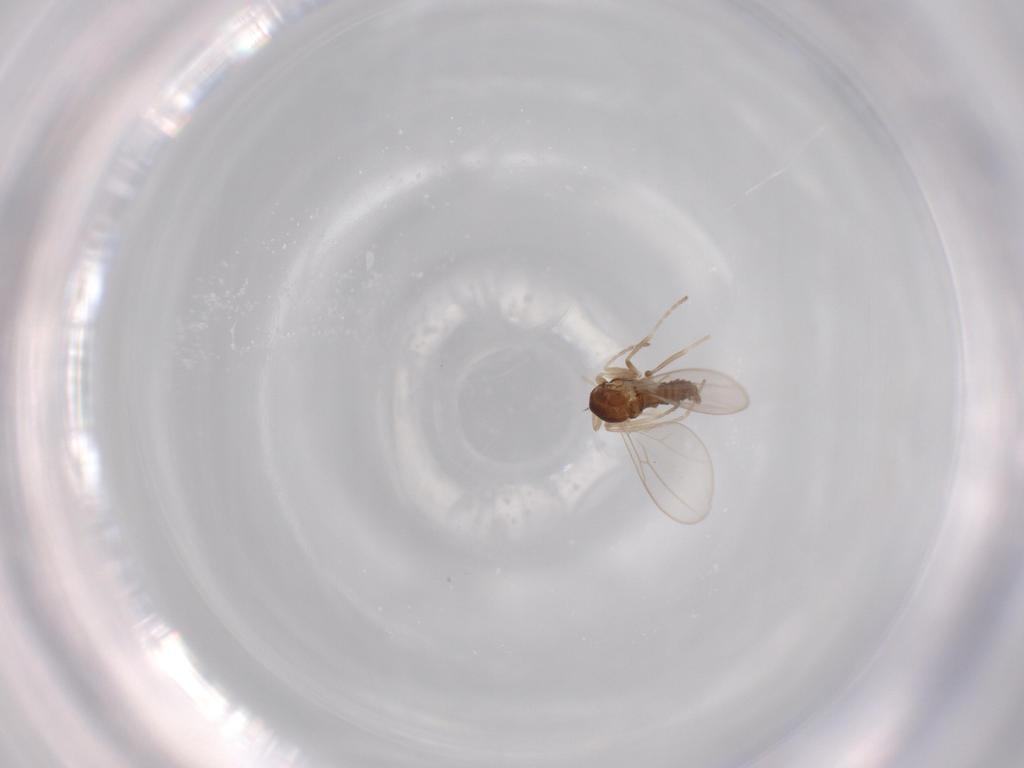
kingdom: Animalia
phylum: Arthropoda
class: Insecta
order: Diptera
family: Cecidomyiidae
